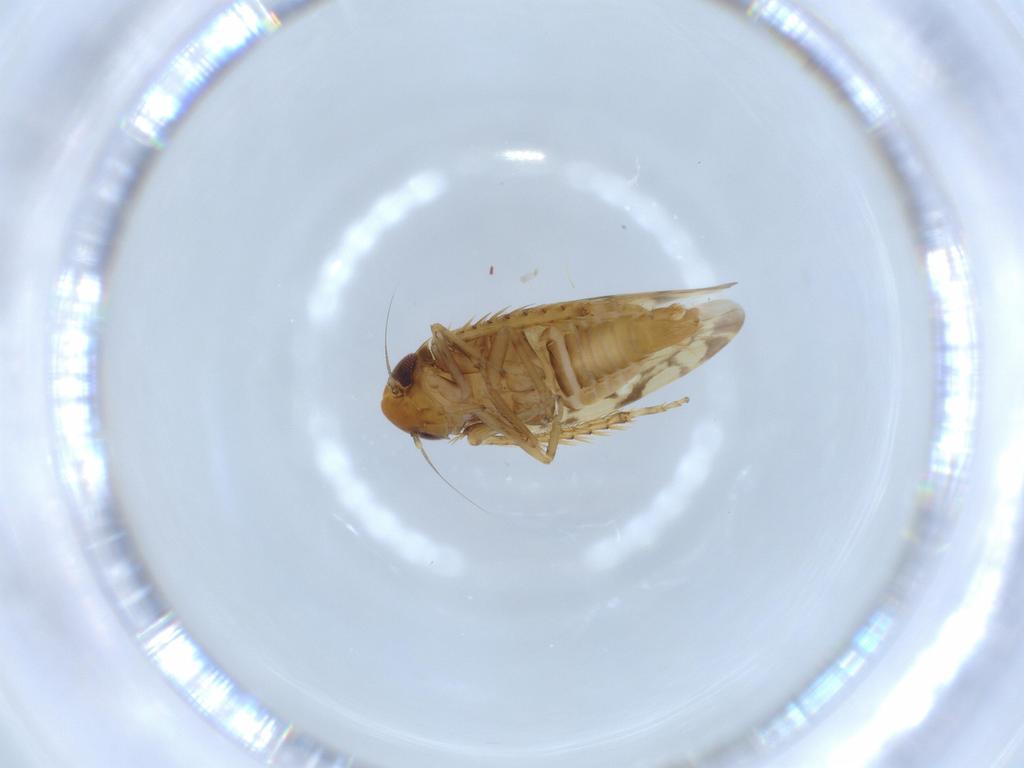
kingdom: Animalia
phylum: Arthropoda
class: Insecta
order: Hemiptera
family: Cicadellidae
